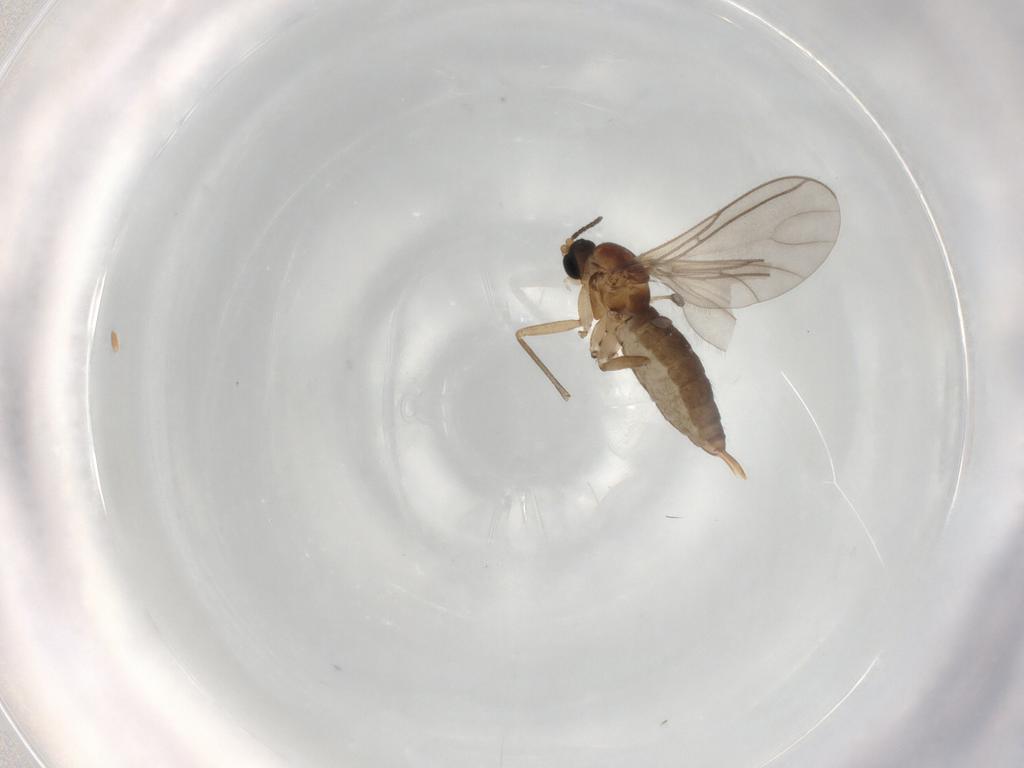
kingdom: Animalia
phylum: Arthropoda
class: Insecta
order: Diptera
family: Sciaridae
